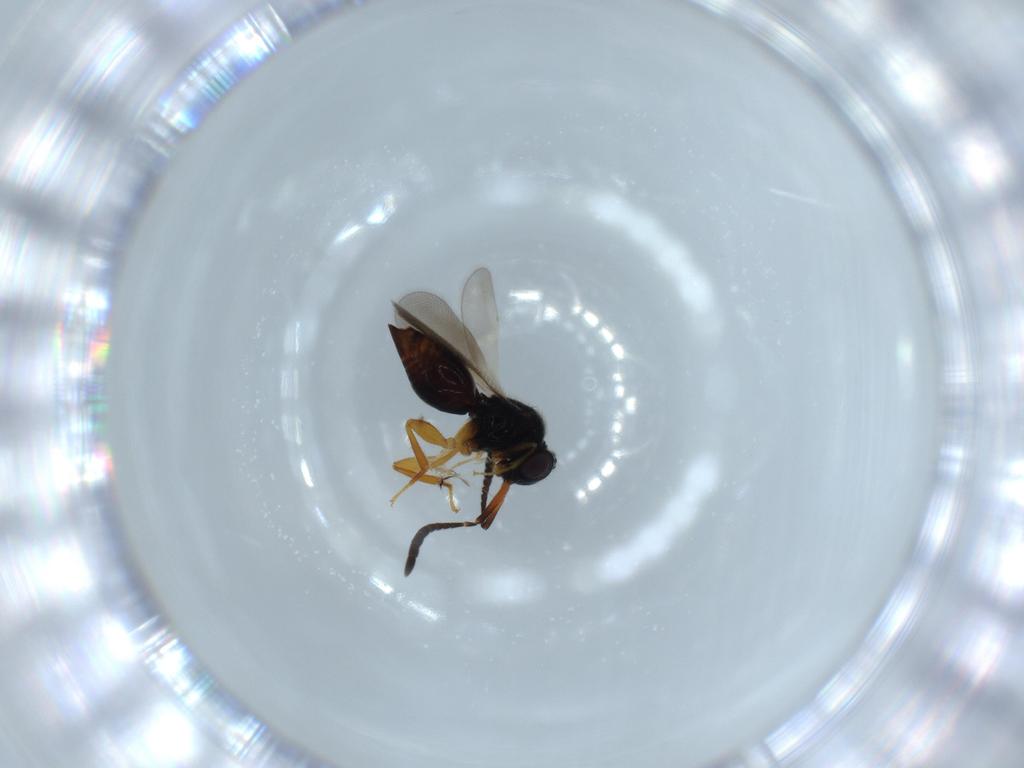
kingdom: Animalia
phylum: Arthropoda
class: Insecta
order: Hymenoptera
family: Ceraphronidae
